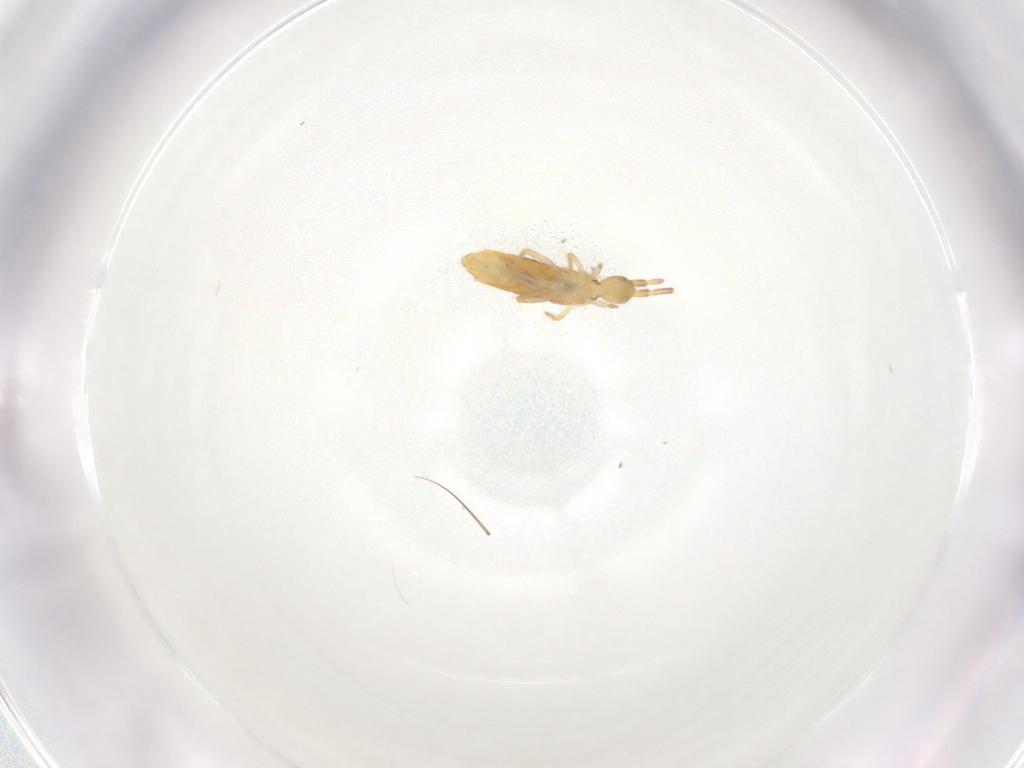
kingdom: Animalia
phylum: Arthropoda
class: Collembola
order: Entomobryomorpha
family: Entomobryidae
